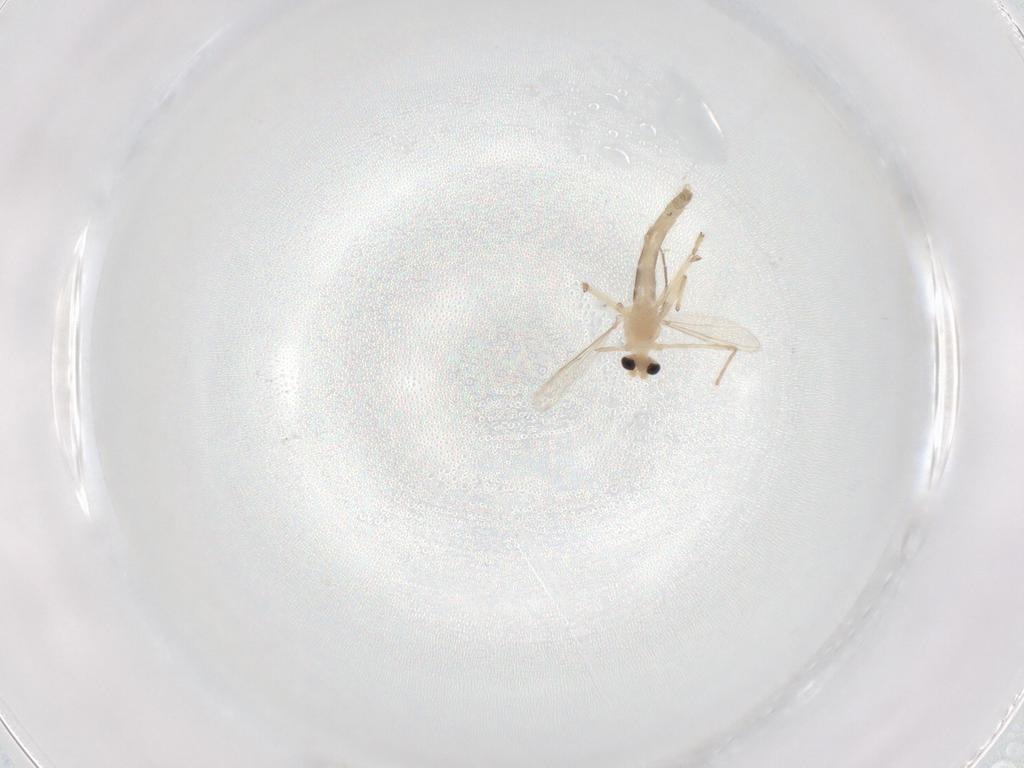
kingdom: Animalia
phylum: Arthropoda
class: Insecta
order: Diptera
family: Chironomidae
